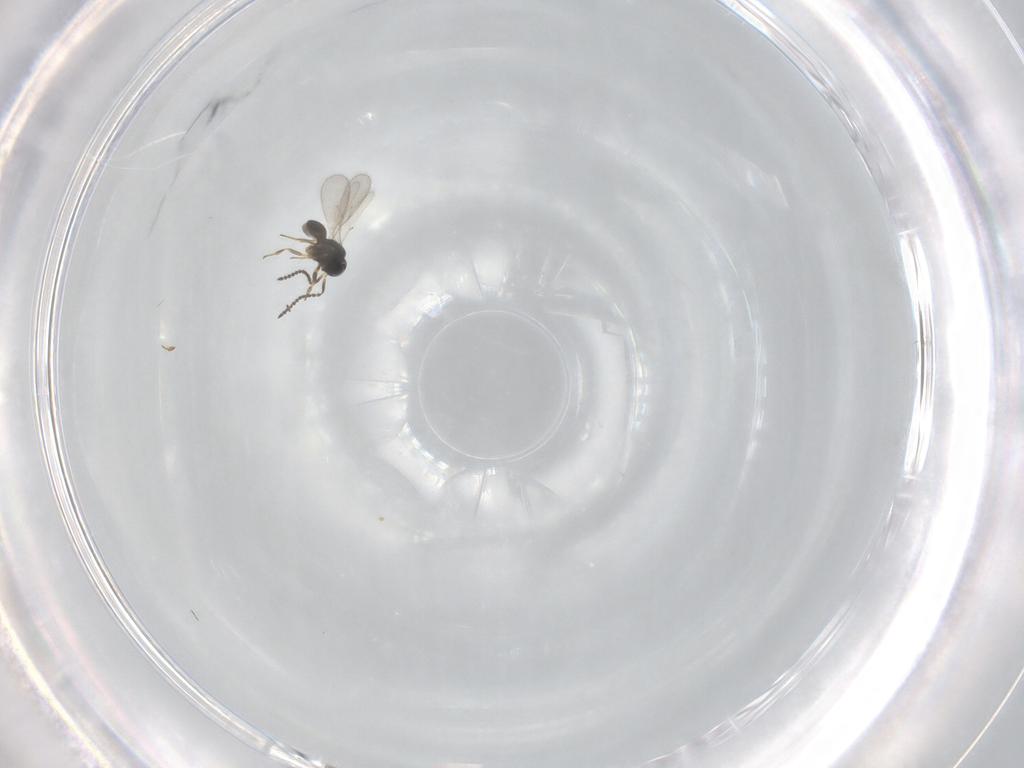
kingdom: Animalia
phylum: Arthropoda
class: Insecta
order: Hymenoptera
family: Scelionidae
